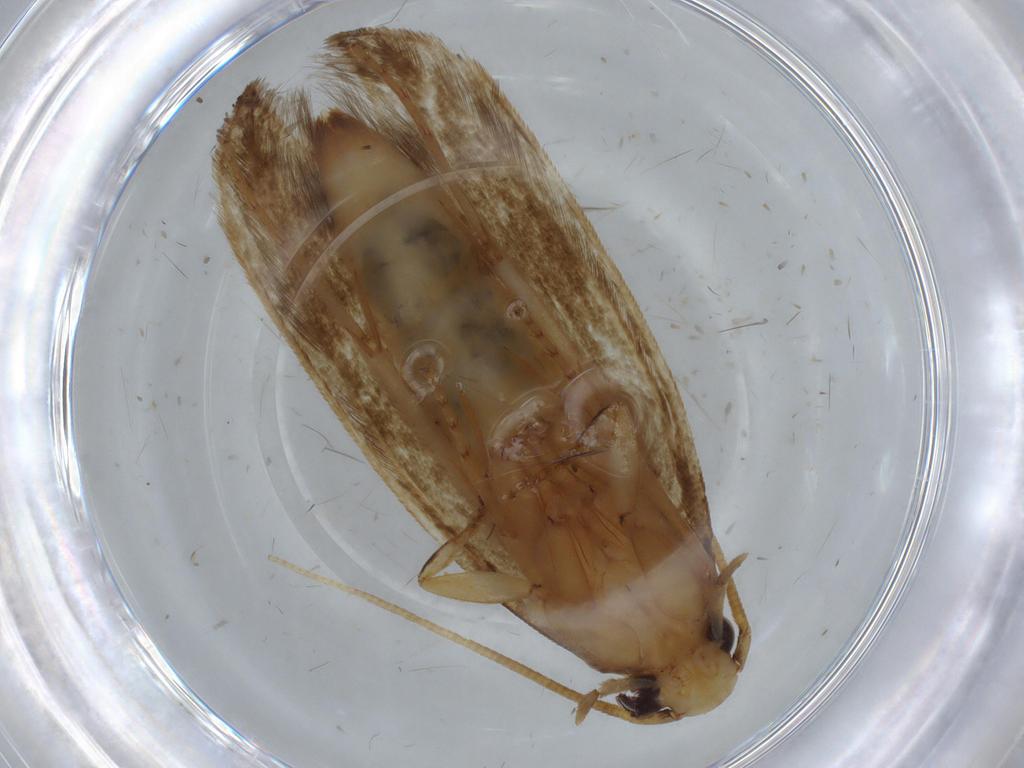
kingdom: Animalia
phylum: Arthropoda
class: Insecta
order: Lepidoptera
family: Tineidae
